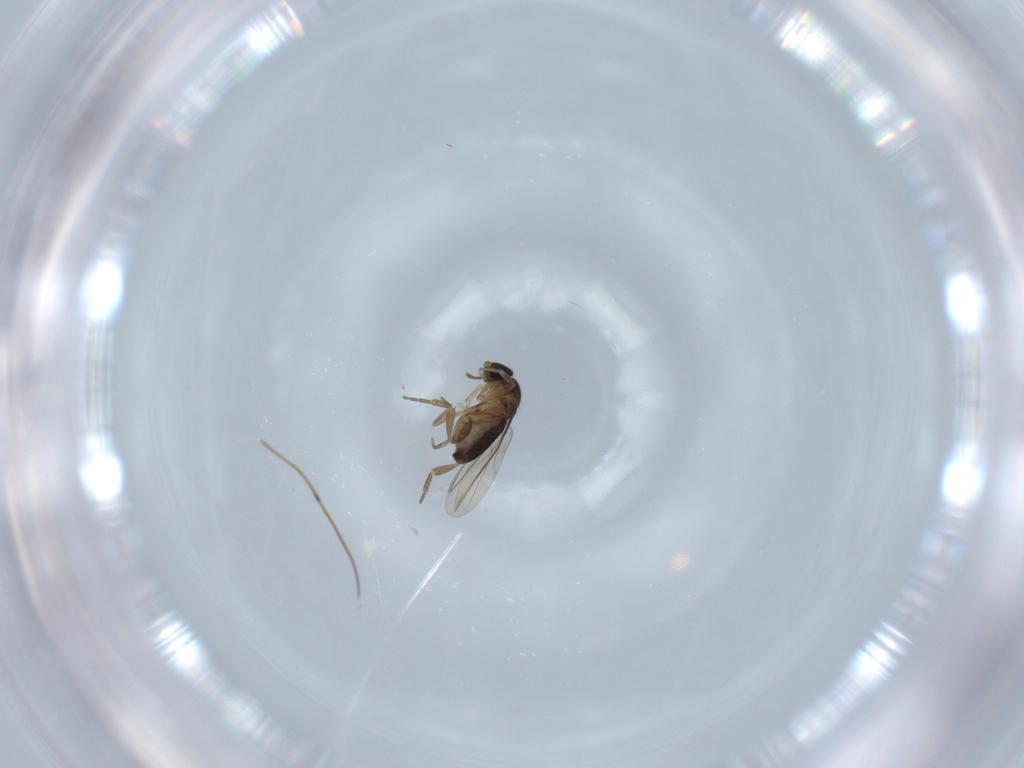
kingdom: Animalia
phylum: Arthropoda
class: Insecta
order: Diptera
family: Phoridae
